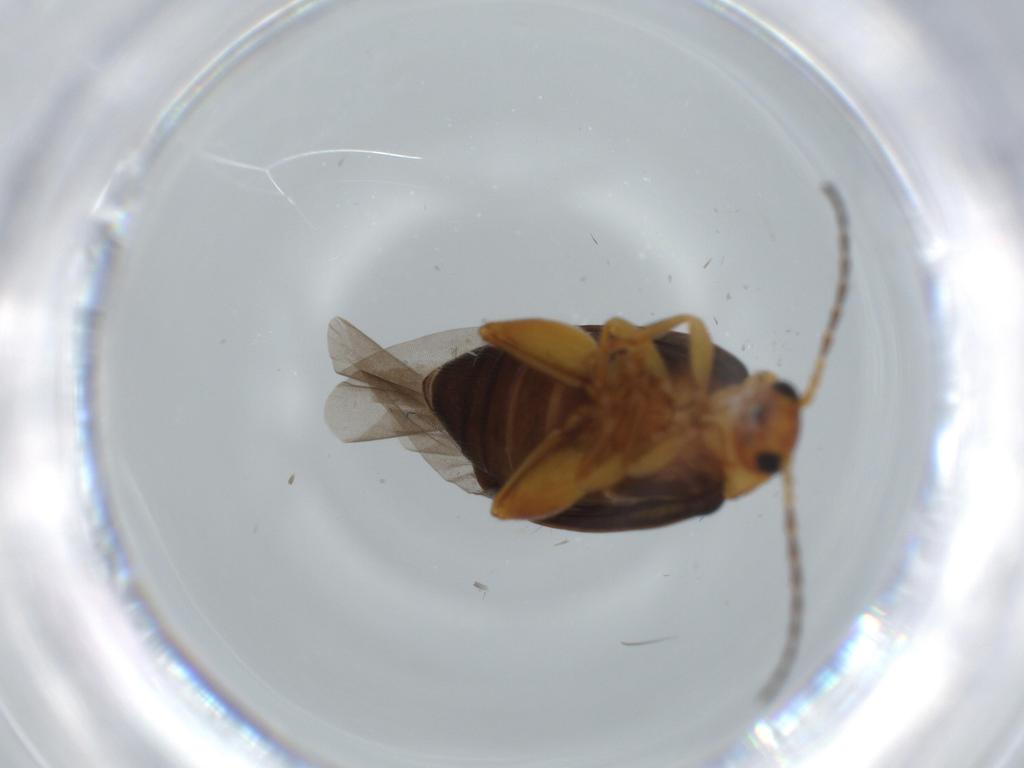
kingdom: Animalia
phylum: Arthropoda
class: Insecta
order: Coleoptera
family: Chrysomelidae
